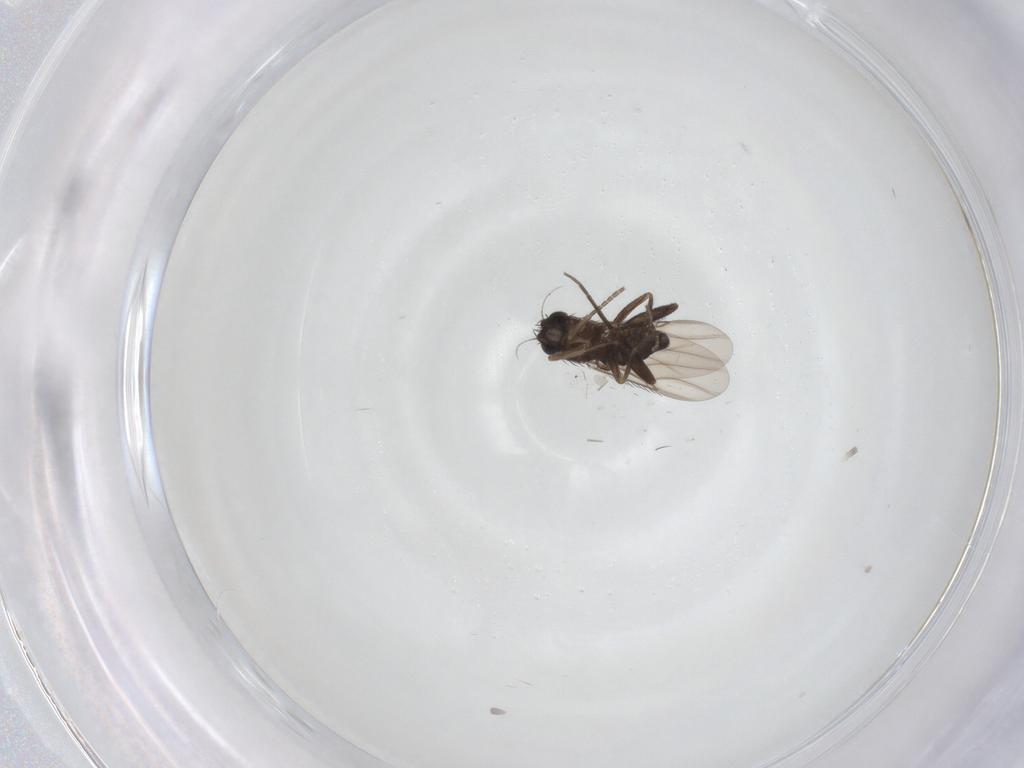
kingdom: Animalia
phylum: Arthropoda
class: Insecta
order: Diptera
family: Phoridae
